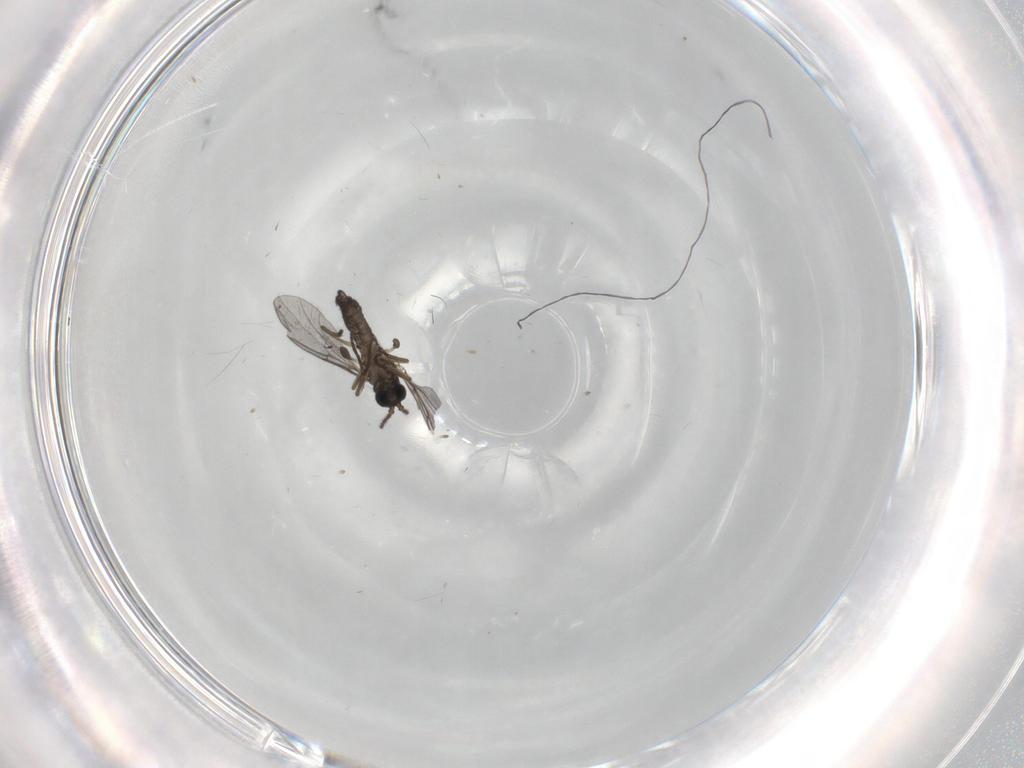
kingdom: Animalia
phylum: Arthropoda
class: Insecta
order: Diptera
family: Sciaridae
